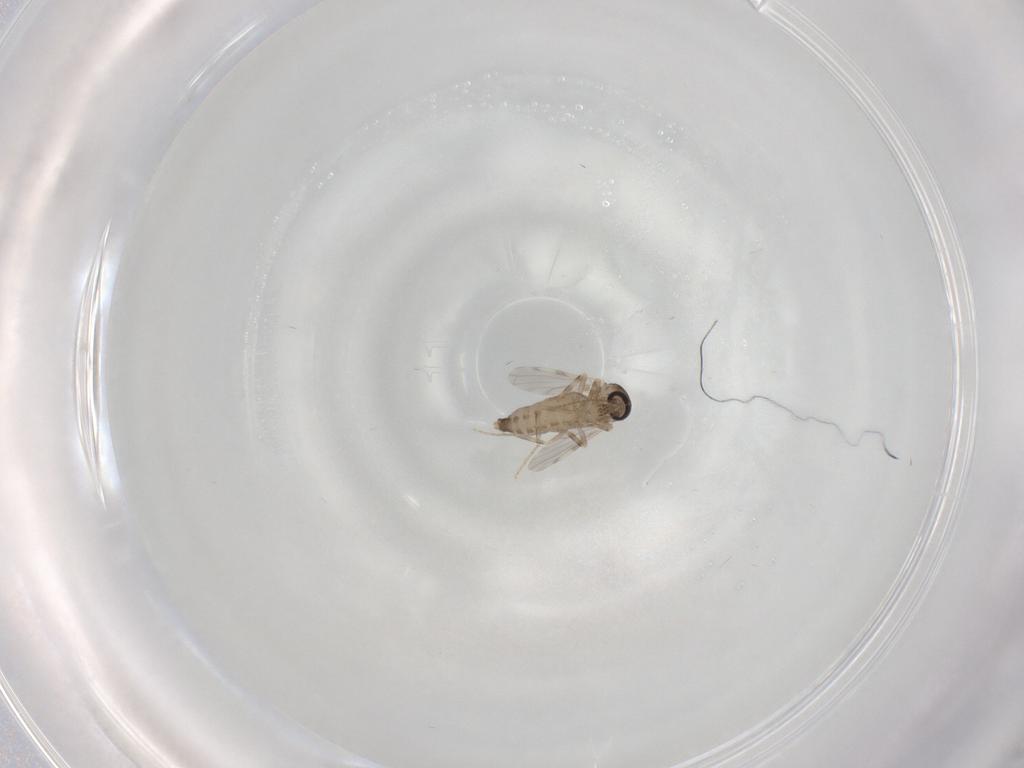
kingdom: Animalia
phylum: Arthropoda
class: Insecta
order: Diptera
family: Ceratopogonidae
